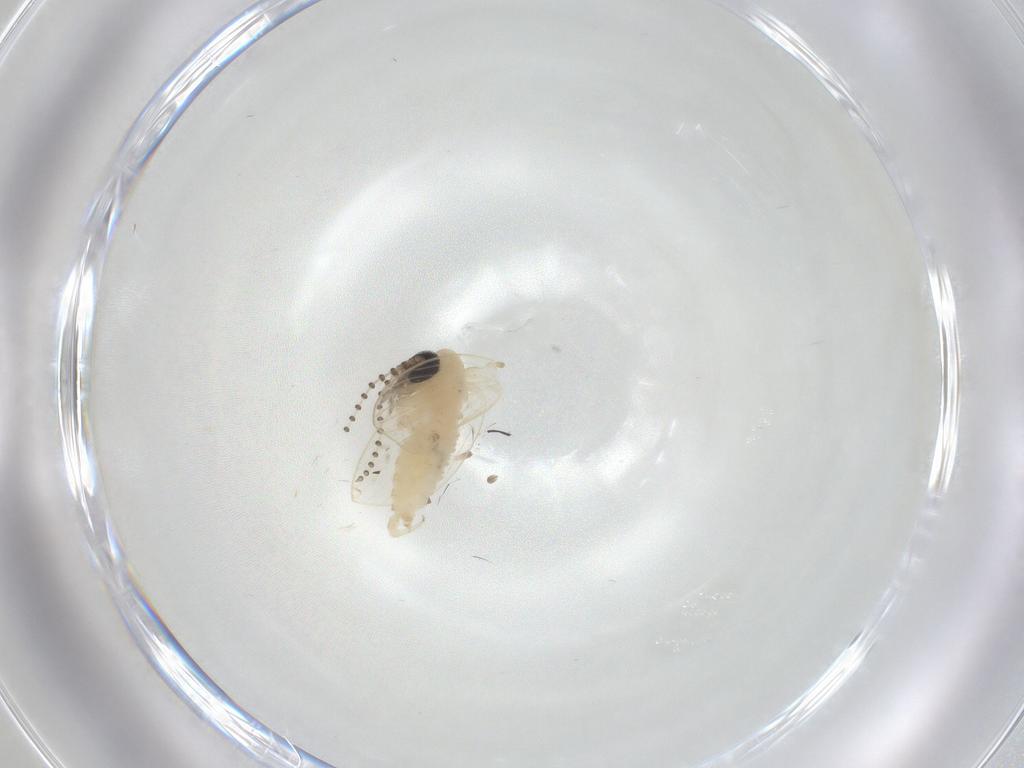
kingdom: Animalia
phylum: Arthropoda
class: Insecta
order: Diptera
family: Psychodidae
